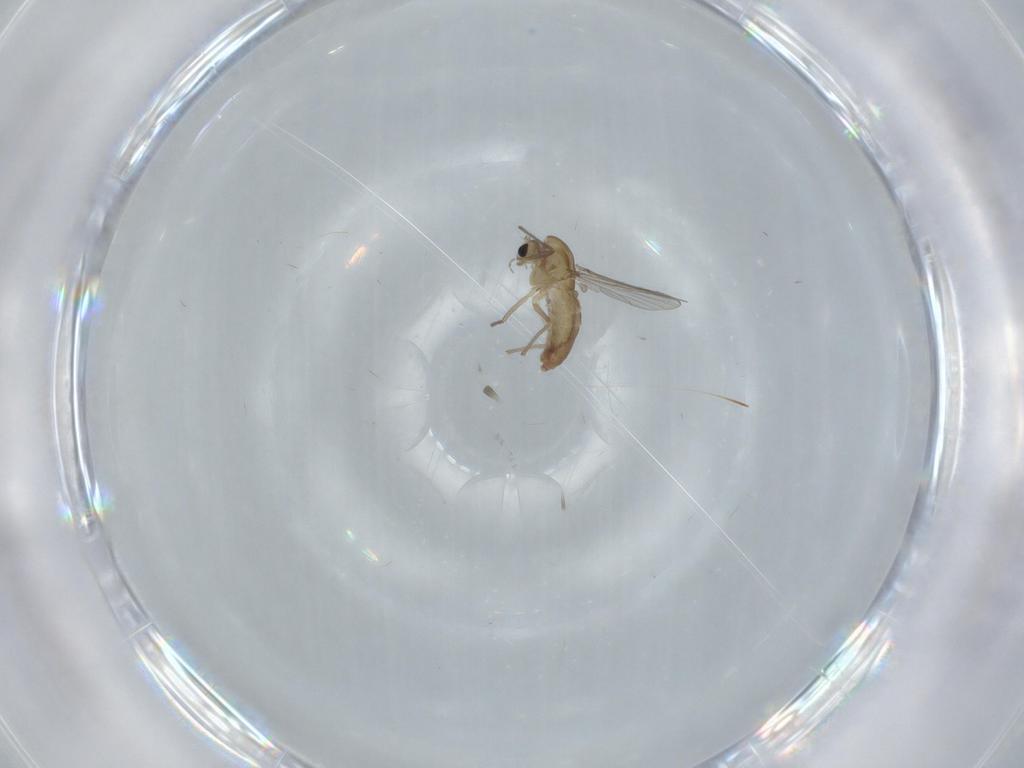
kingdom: Animalia
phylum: Arthropoda
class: Insecta
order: Diptera
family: Chironomidae
